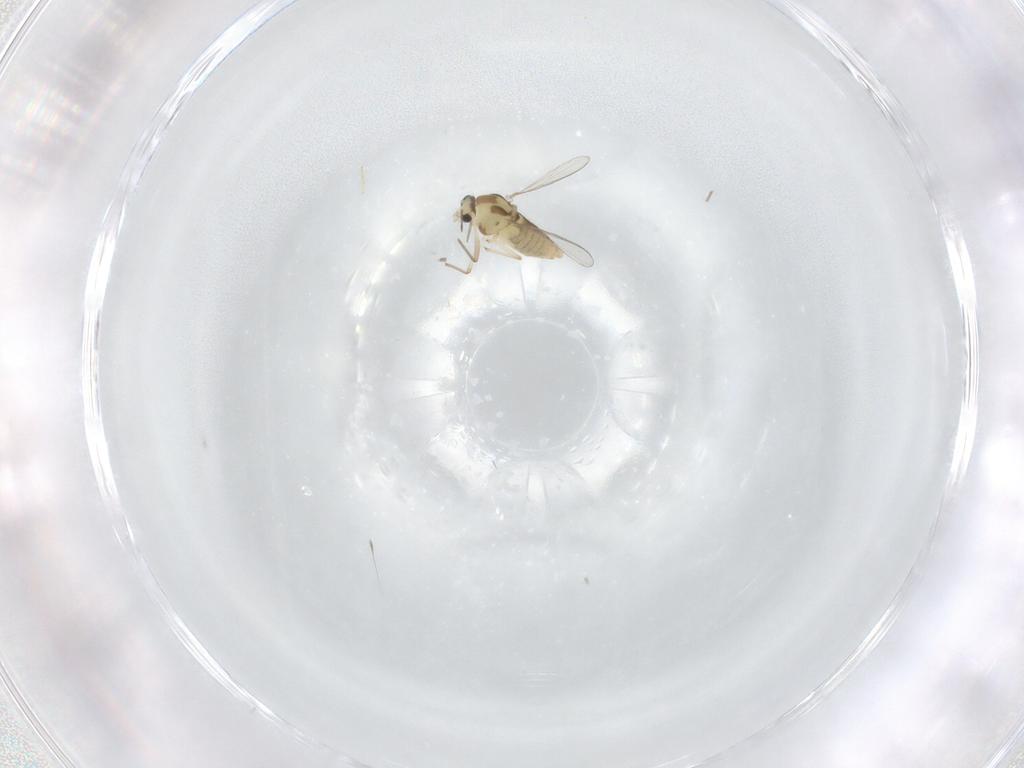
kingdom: Animalia
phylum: Arthropoda
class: Insecta
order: Diptera
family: Chironomidae
